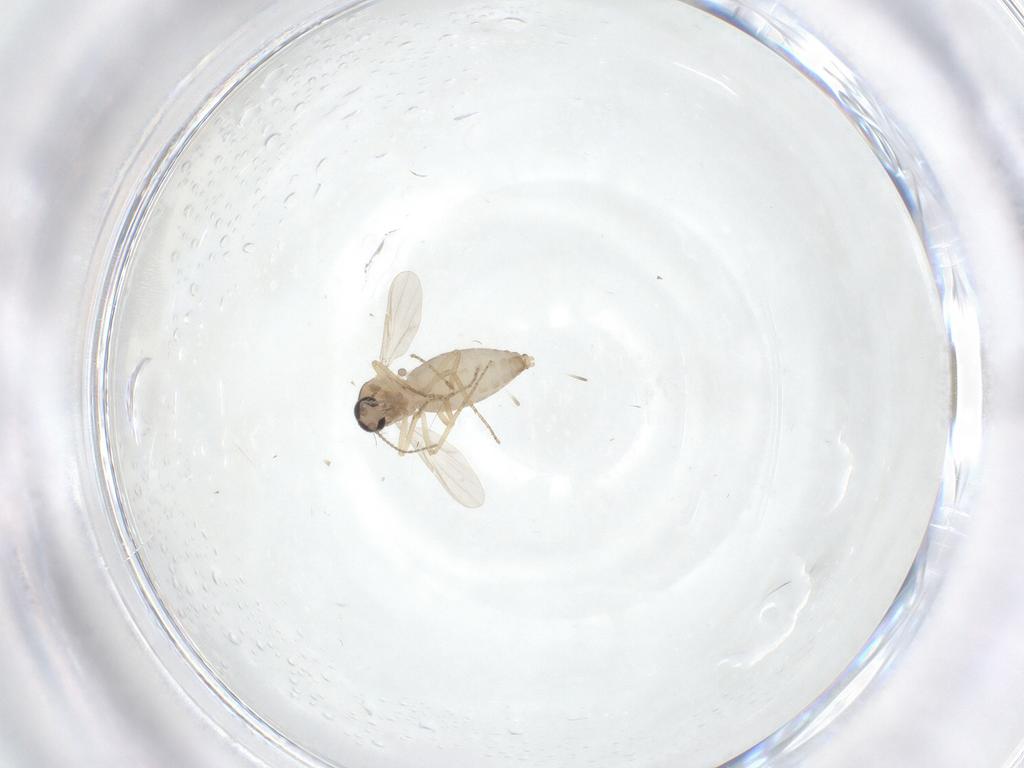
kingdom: Animalia
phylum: Arthropoda
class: Insecta
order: Diptera
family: Ceratopogonidae
